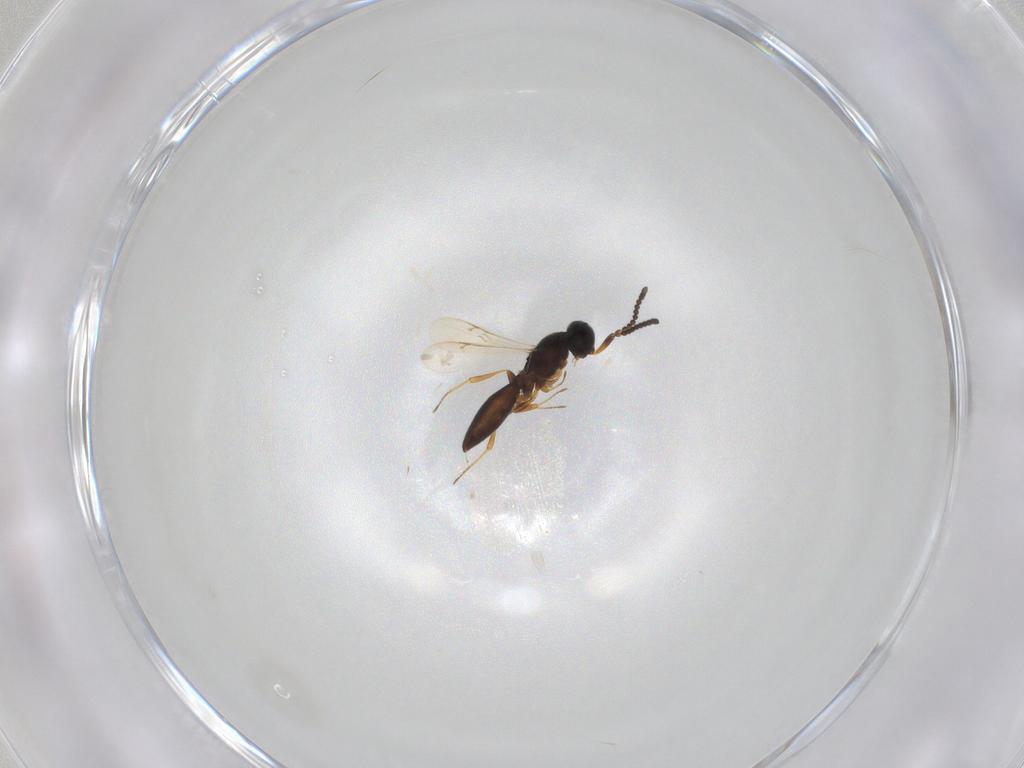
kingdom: Animalia
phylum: Arthropoda
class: Insecta
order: Hymenoptera
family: Scelionidae
